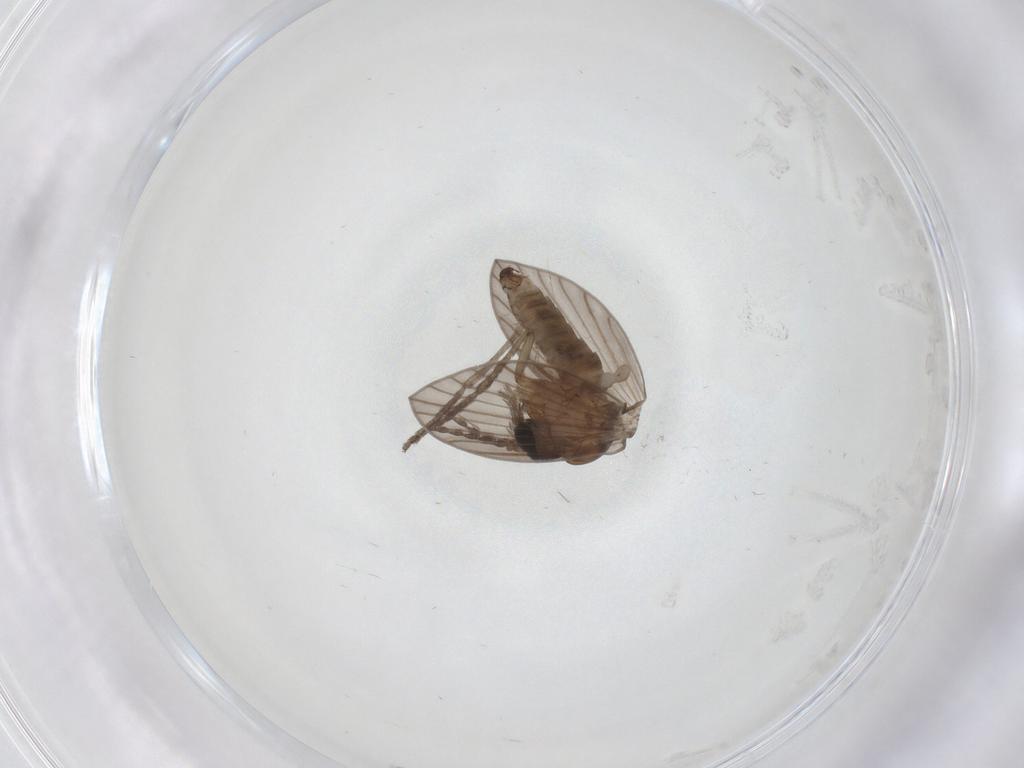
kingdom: Animalia
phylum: Arthropoda
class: Insecta
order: Diptera
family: Psychodidae
